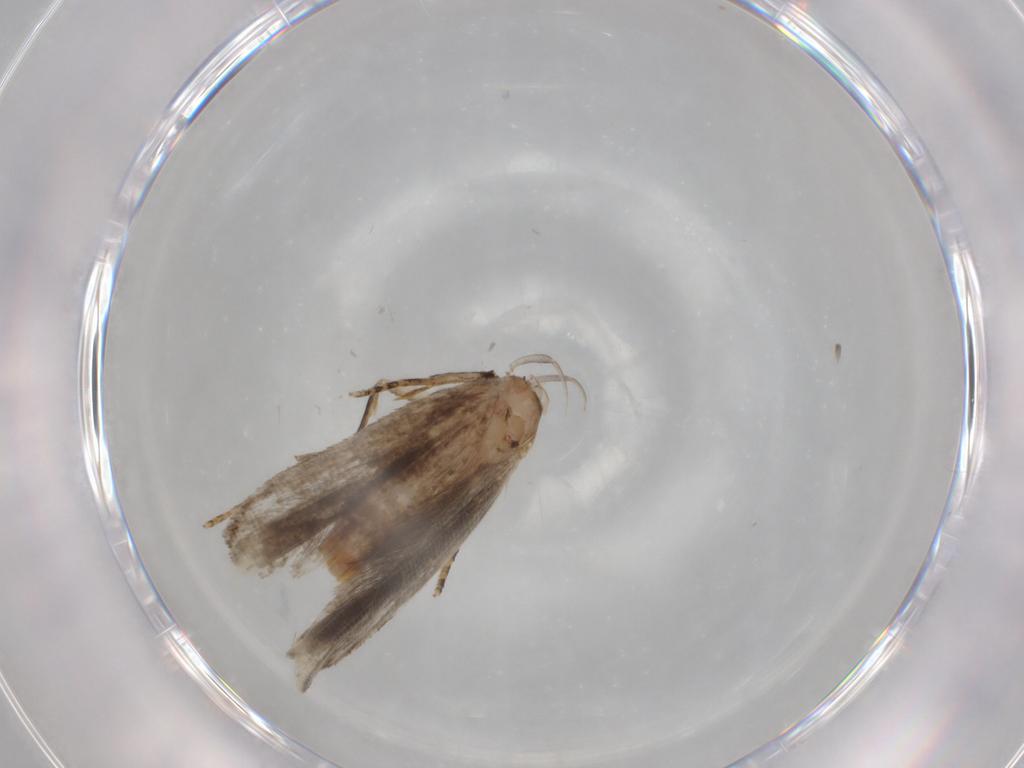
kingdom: Animalia
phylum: Arthropoda
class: Insecta
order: Lepidoptera
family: Gelechiidae
